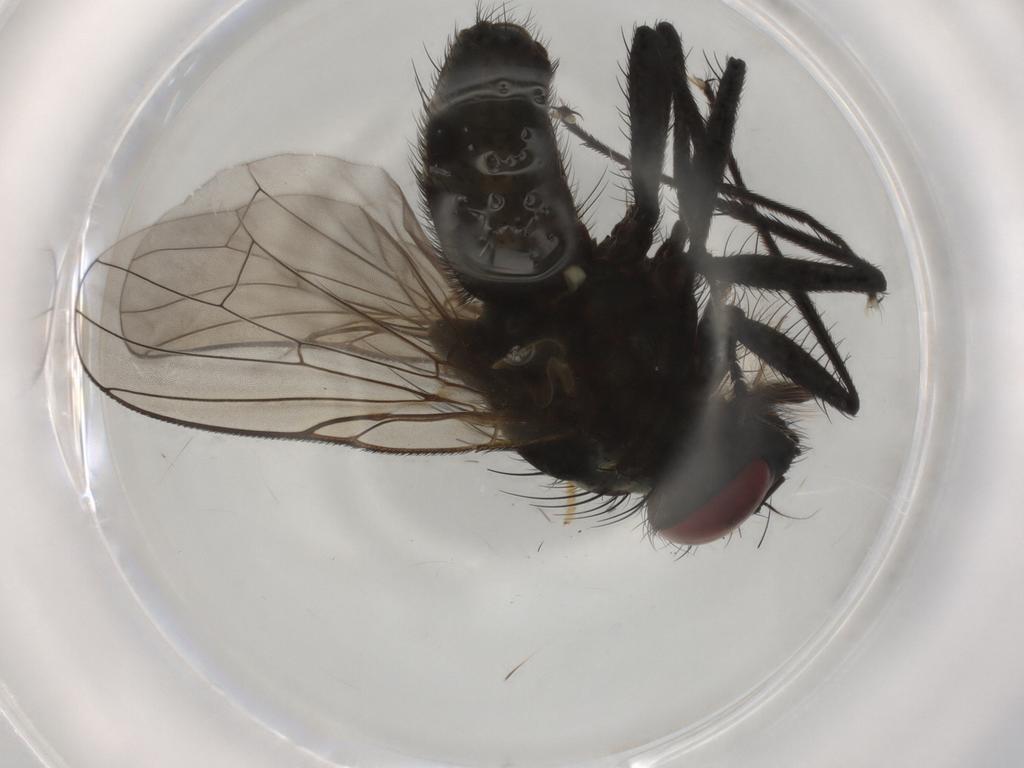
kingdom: Animalia
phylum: Arthropoda
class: Insecta
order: Diptera
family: Muscidae
